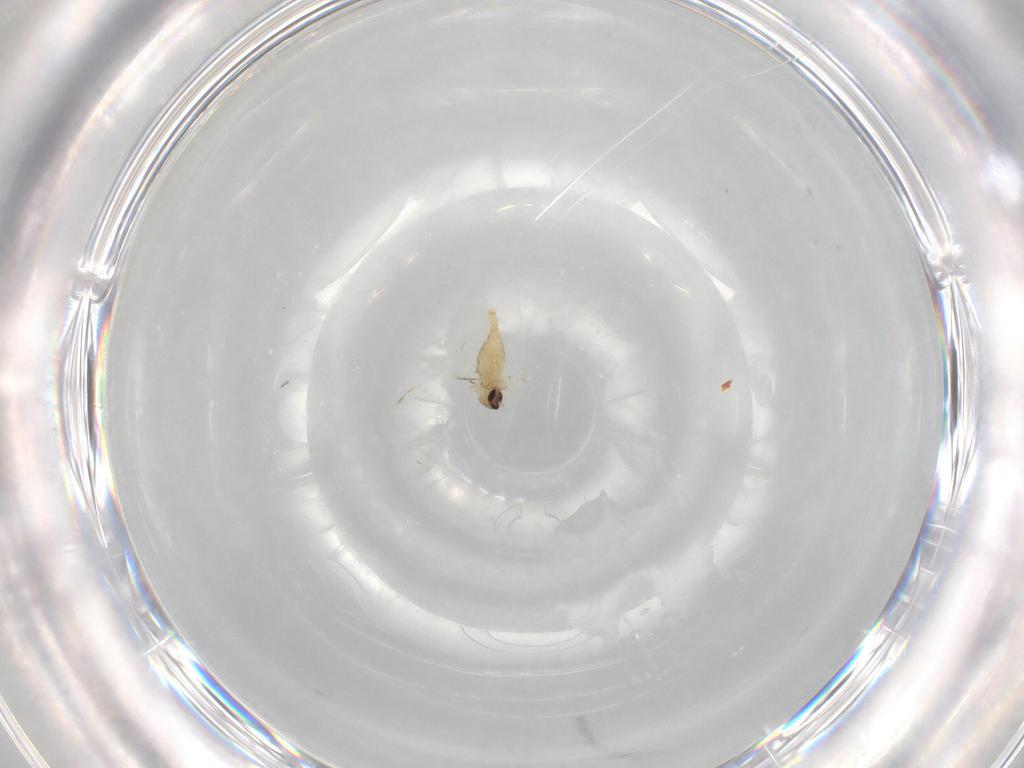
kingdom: Animalia
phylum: Arthropoda
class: Insecta
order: Diptera
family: Cecidomyiidae
